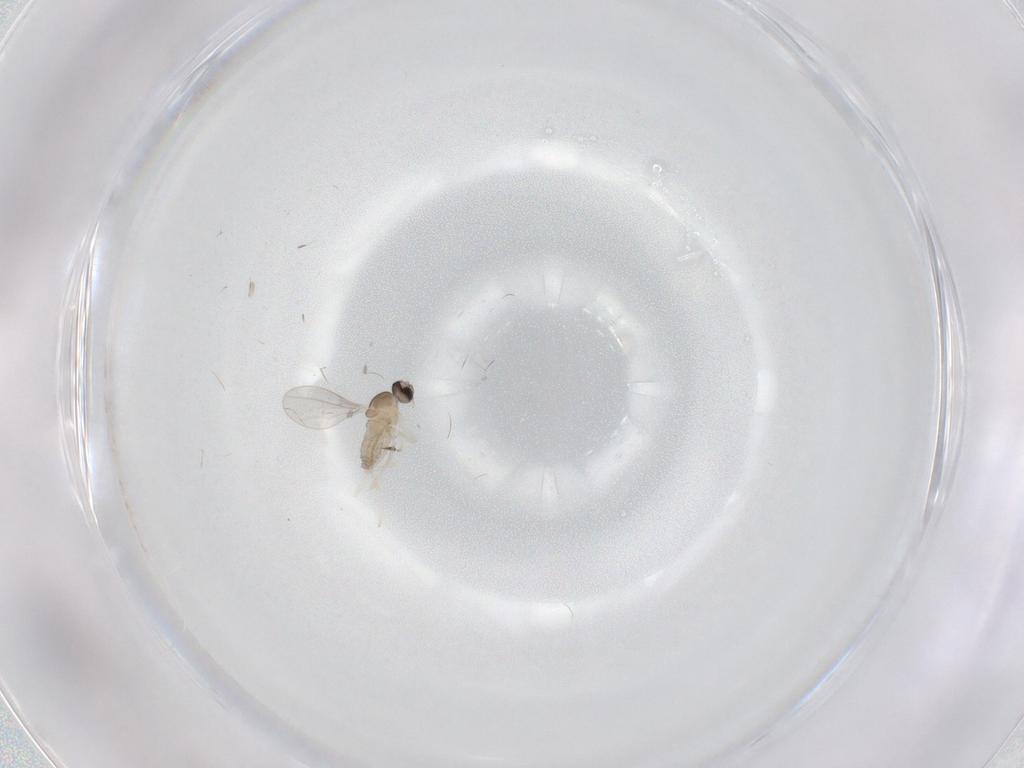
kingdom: Animalia
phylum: Arthropoda
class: Insecta
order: Diptera
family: Cecidomyiidae
